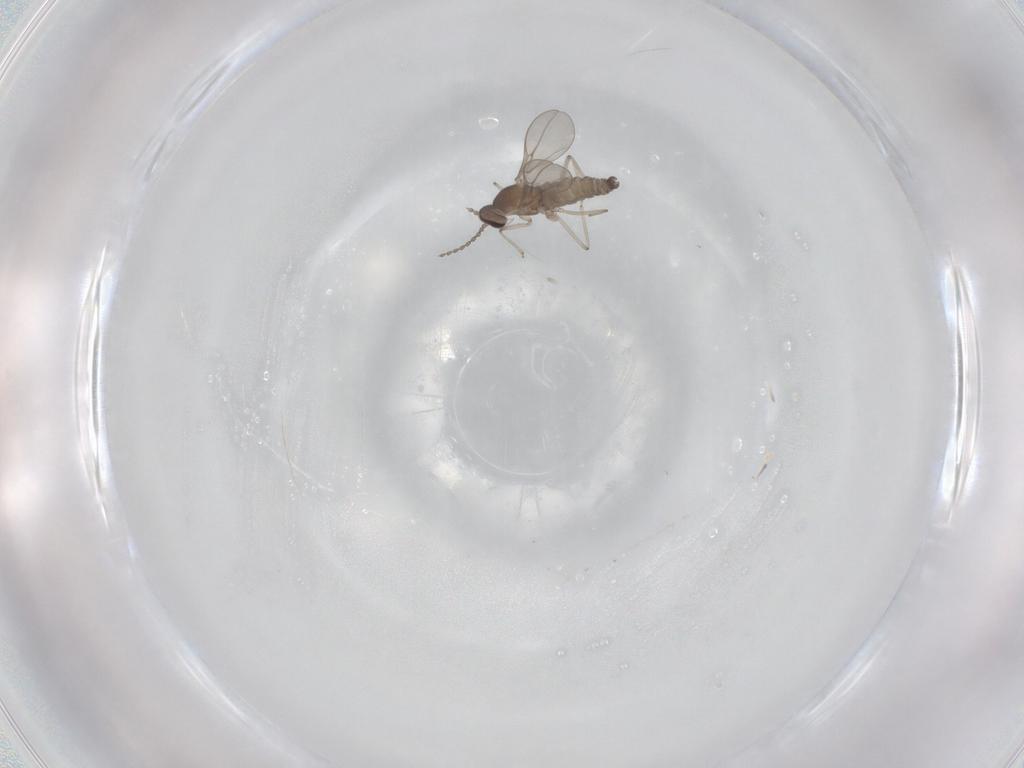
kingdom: Animalia
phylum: Arthropoda
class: Insecta
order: Diptera
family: Cecidomyiidae
